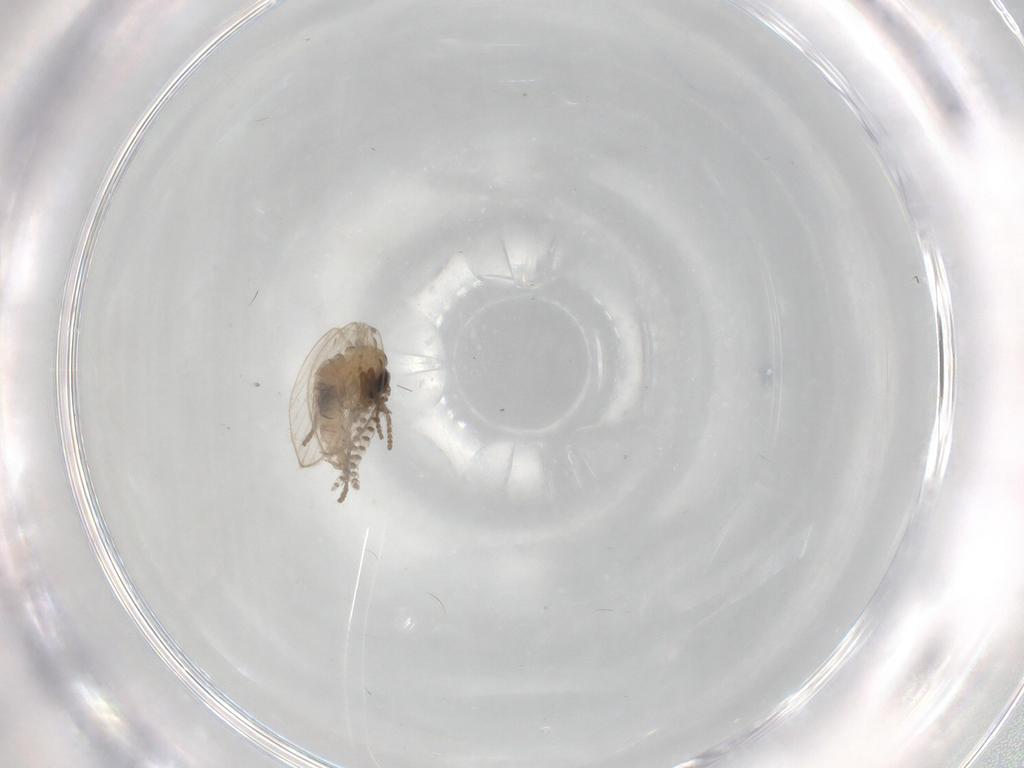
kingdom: Animalia
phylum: Arthropoda
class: Insecta
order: Diptera
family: Psychodidae
